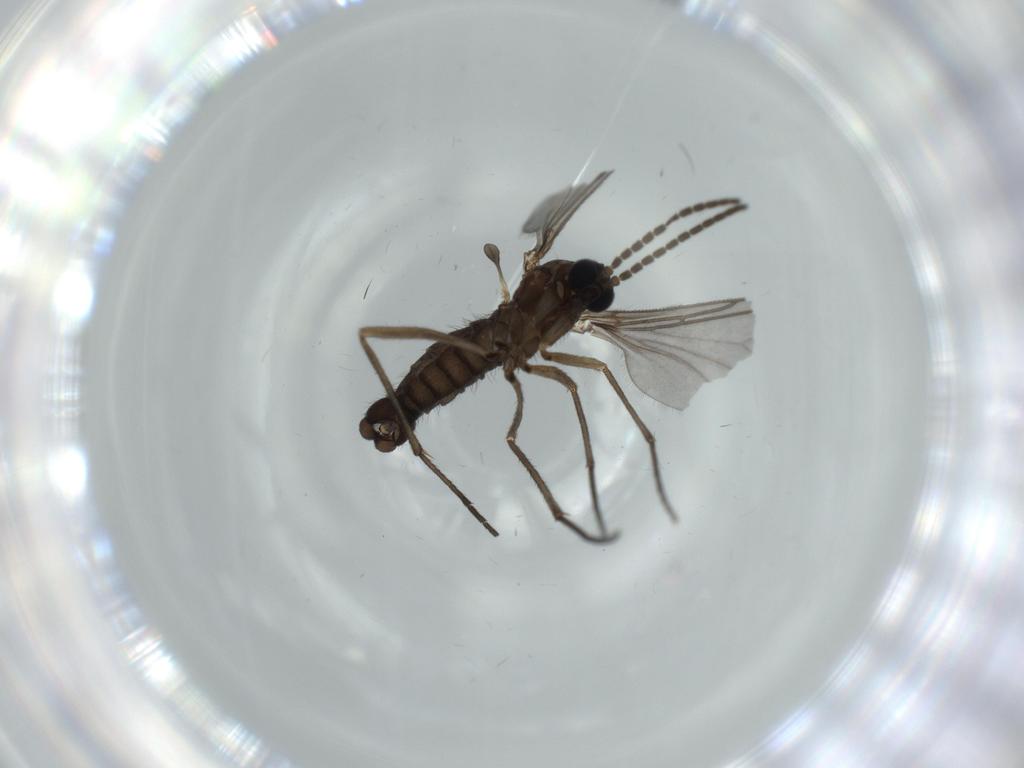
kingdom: Animalia
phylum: Arthropoda
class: Insecta
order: Diptera
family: Sciaridae
